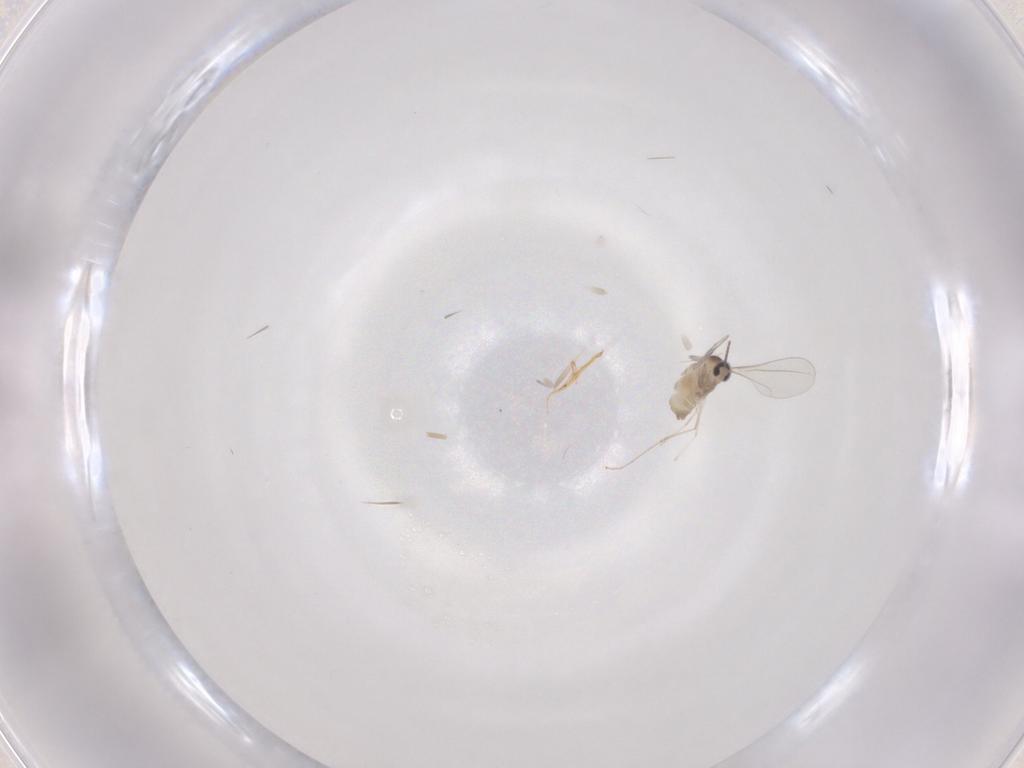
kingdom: Animalia
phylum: Arthropoda
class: Insecta
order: Diptera
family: Cecidomyiidae
